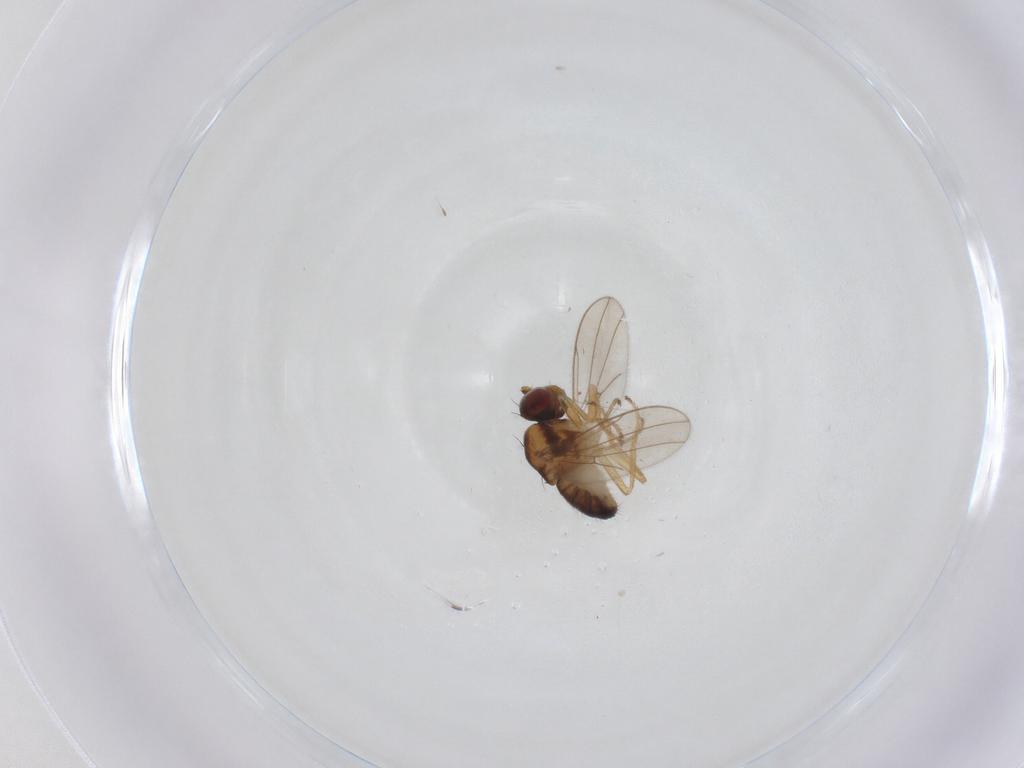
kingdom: Animalia
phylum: Arthropoda
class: Insecta
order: Diptera
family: Ephydridae
